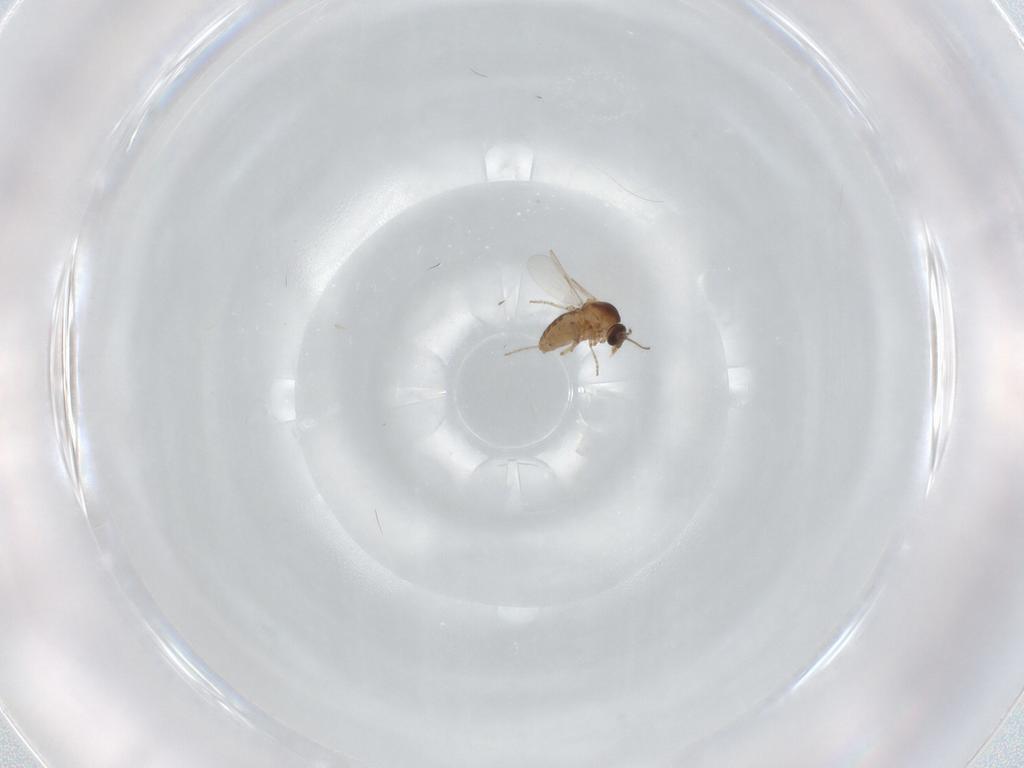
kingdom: Animalia
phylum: Arthropoda
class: Insecta
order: Diptera
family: Ceratopogonidae
